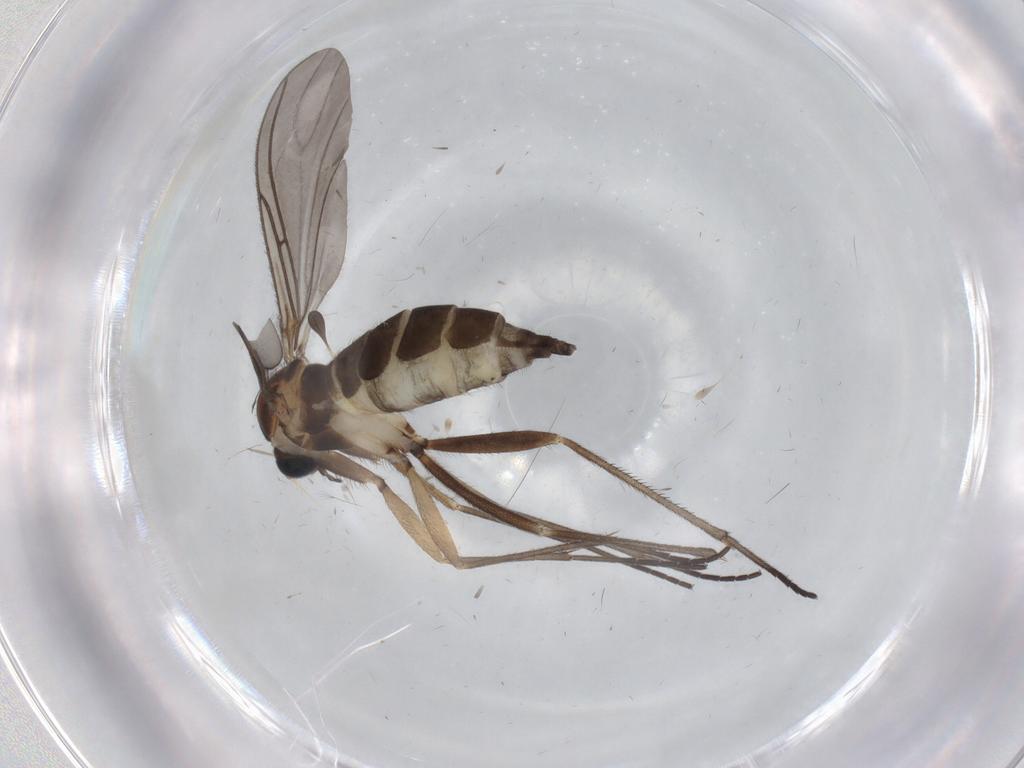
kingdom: Animalia
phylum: Arthropoda
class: Insecta
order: Diptera
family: Sciaridae
